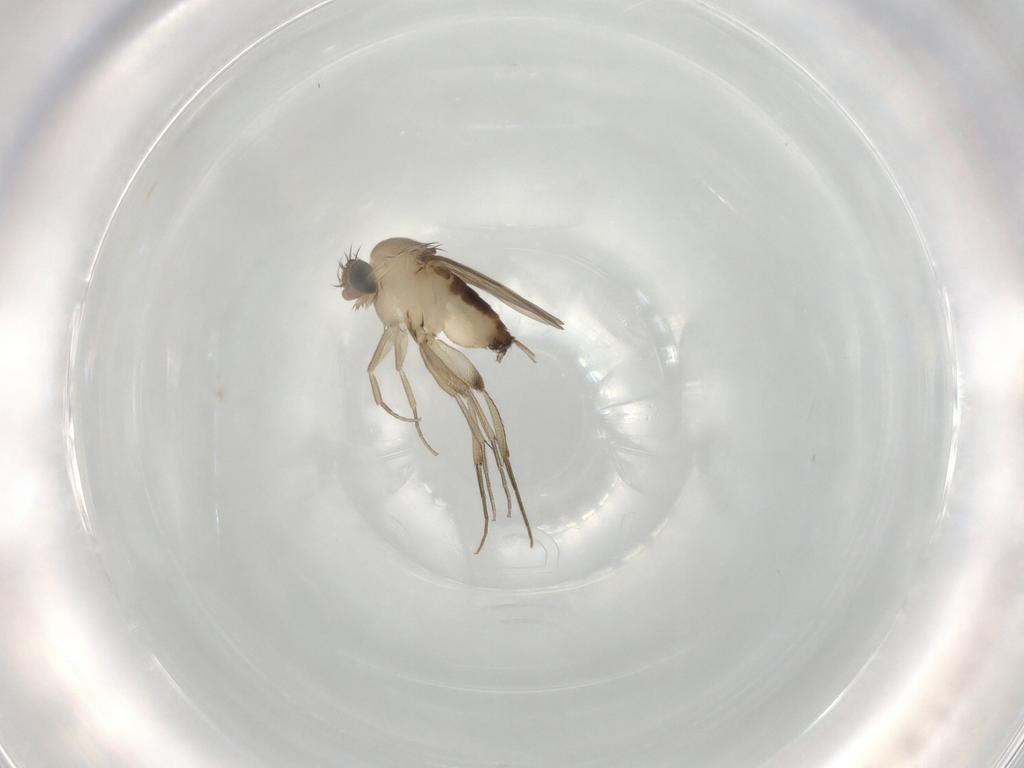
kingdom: Animalia
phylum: Arthropoda
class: Insecta
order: Diptera
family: Phoridae
